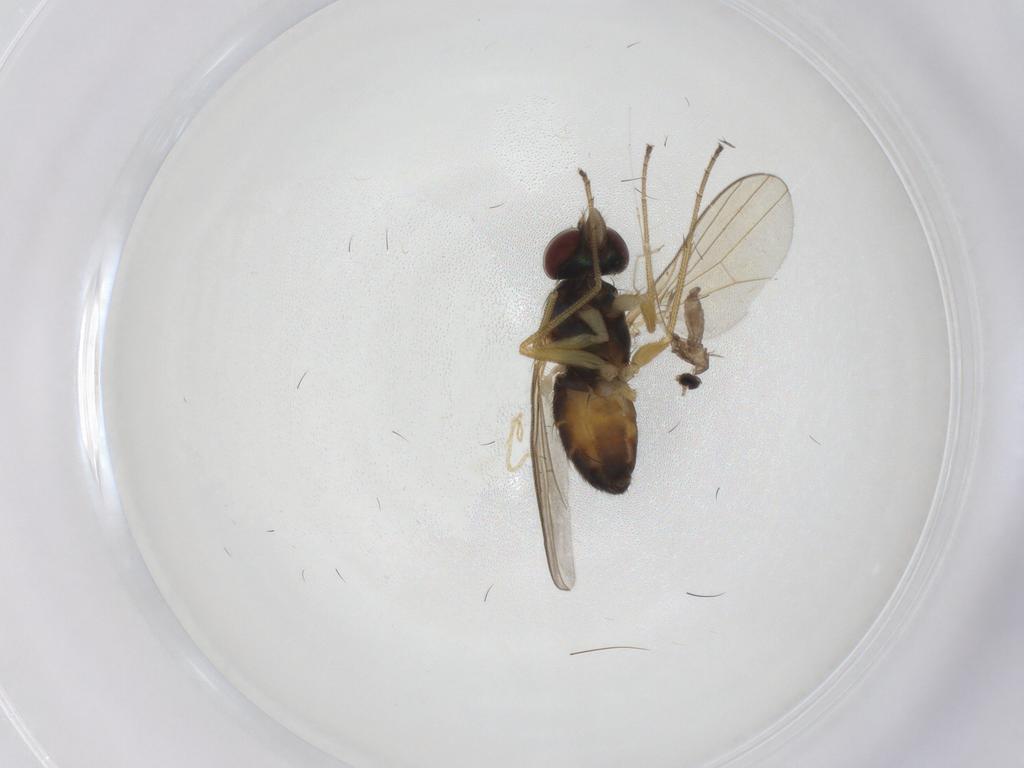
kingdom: Animalia
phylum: Arthropoda
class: Insecta
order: Diptera
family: Dolichopodidae
